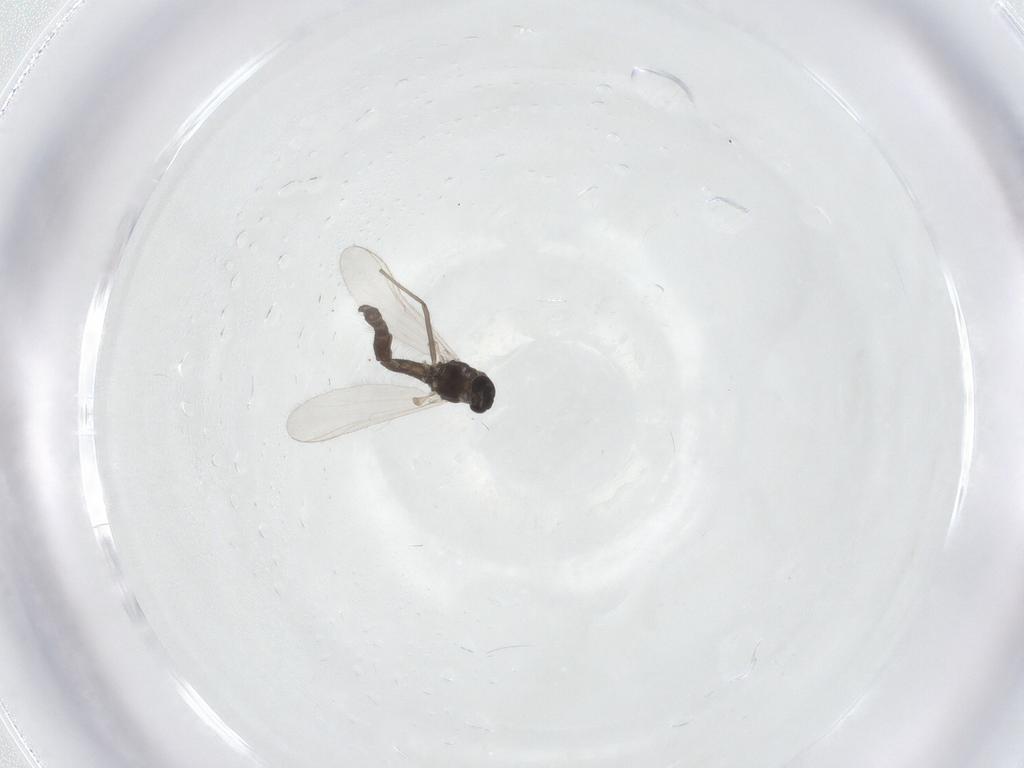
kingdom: Animalia
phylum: Arthropoda
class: Insecta
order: Diptera
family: Chironomidae
